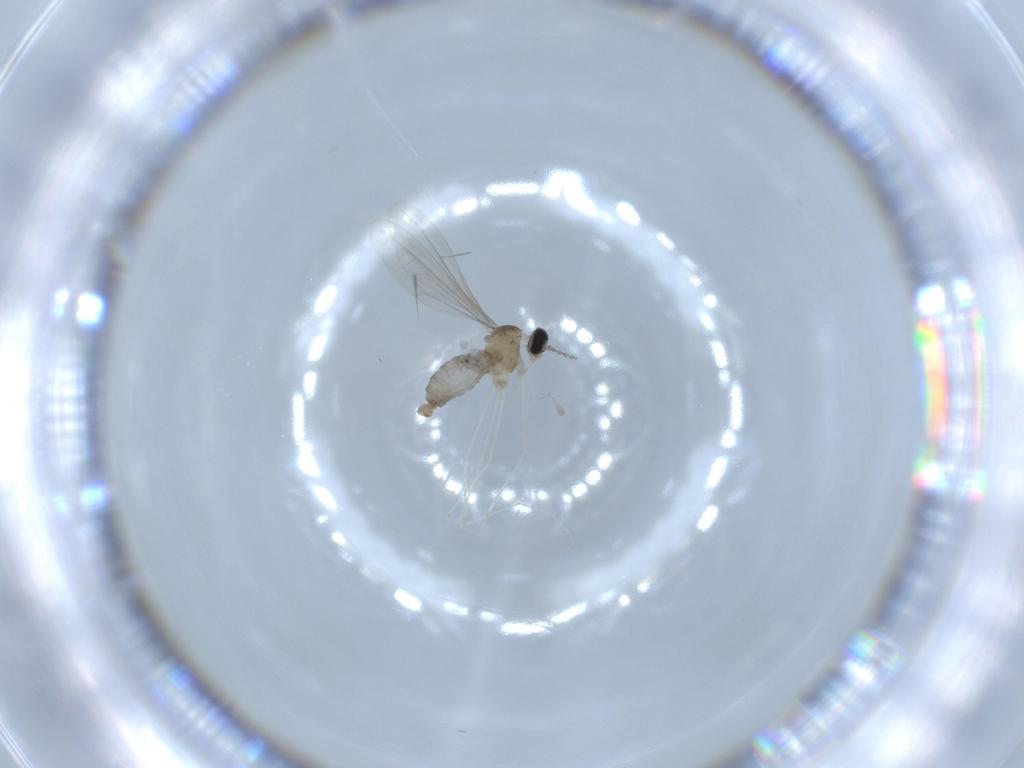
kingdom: Animalia
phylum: Arthropoda
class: Insecta
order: Diptera
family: Cecidomyiidae
